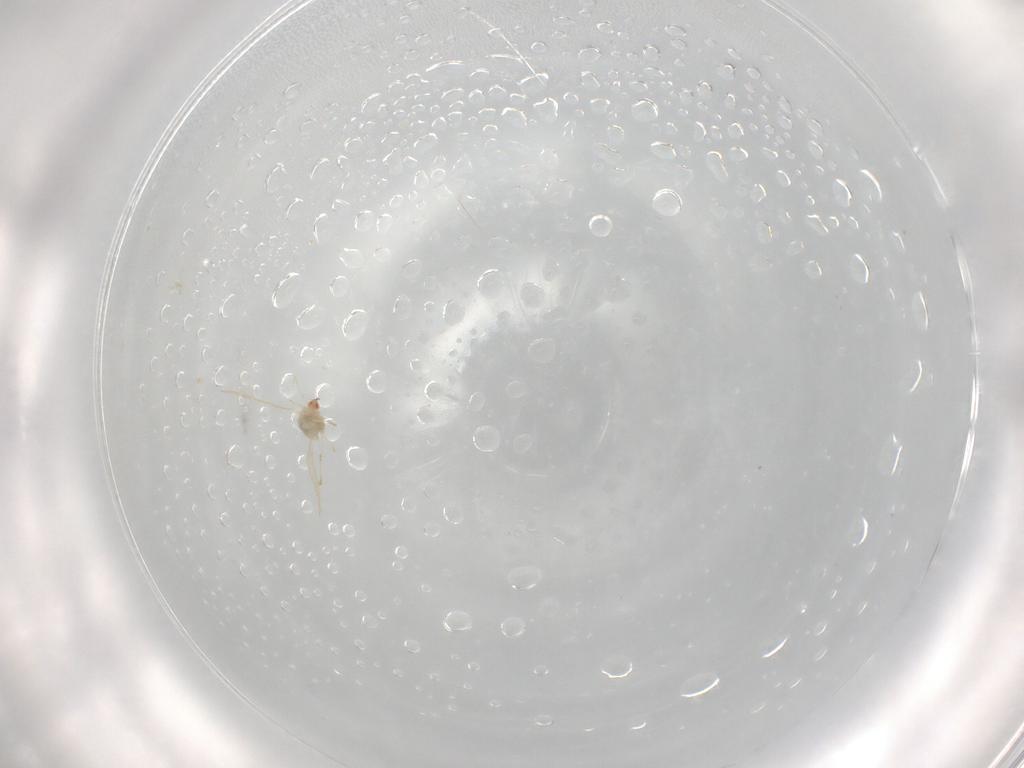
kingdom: Animalia
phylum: Arthropoda
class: Insecta
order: Diptera
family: Cecidomyiidae
